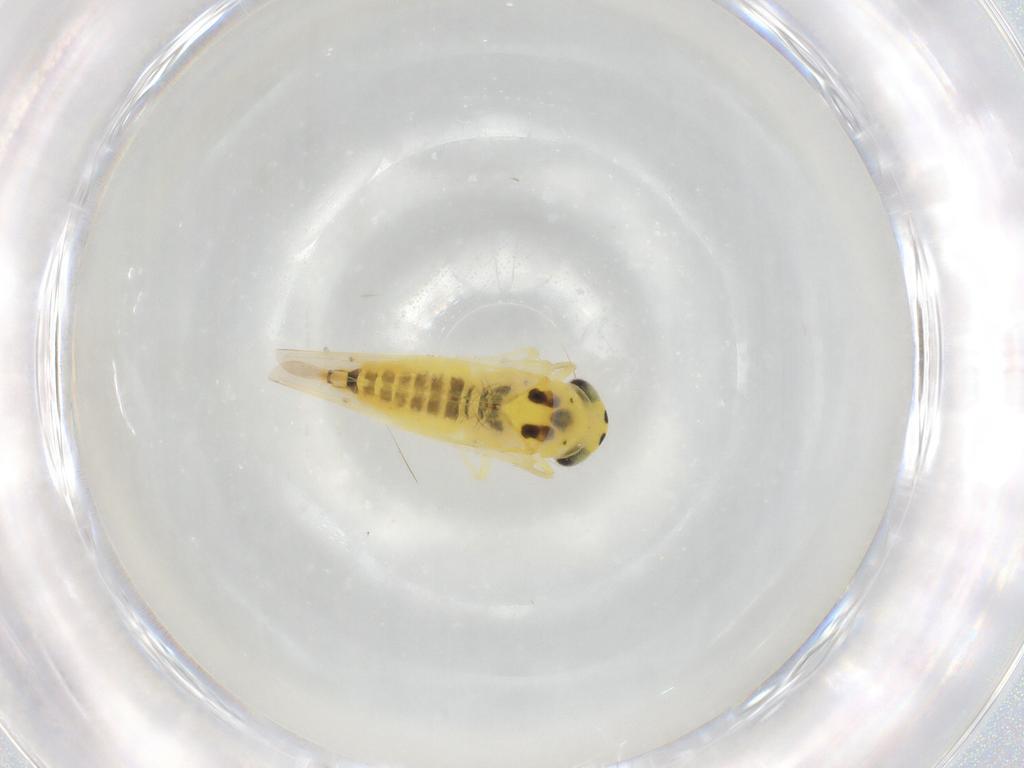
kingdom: Animalia
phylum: Arthropoda
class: Insecta
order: Hemiptera
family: Cicadellidae
